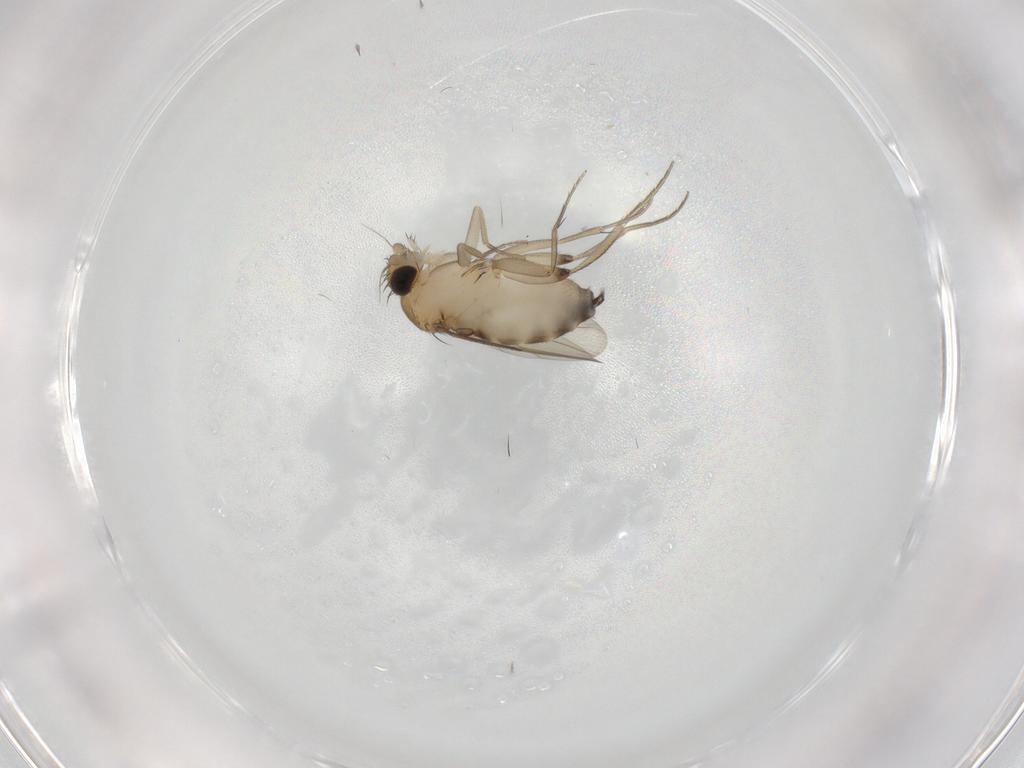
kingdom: Animalia
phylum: Arthropoda
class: Insecta
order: Diptera
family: Phoridae
